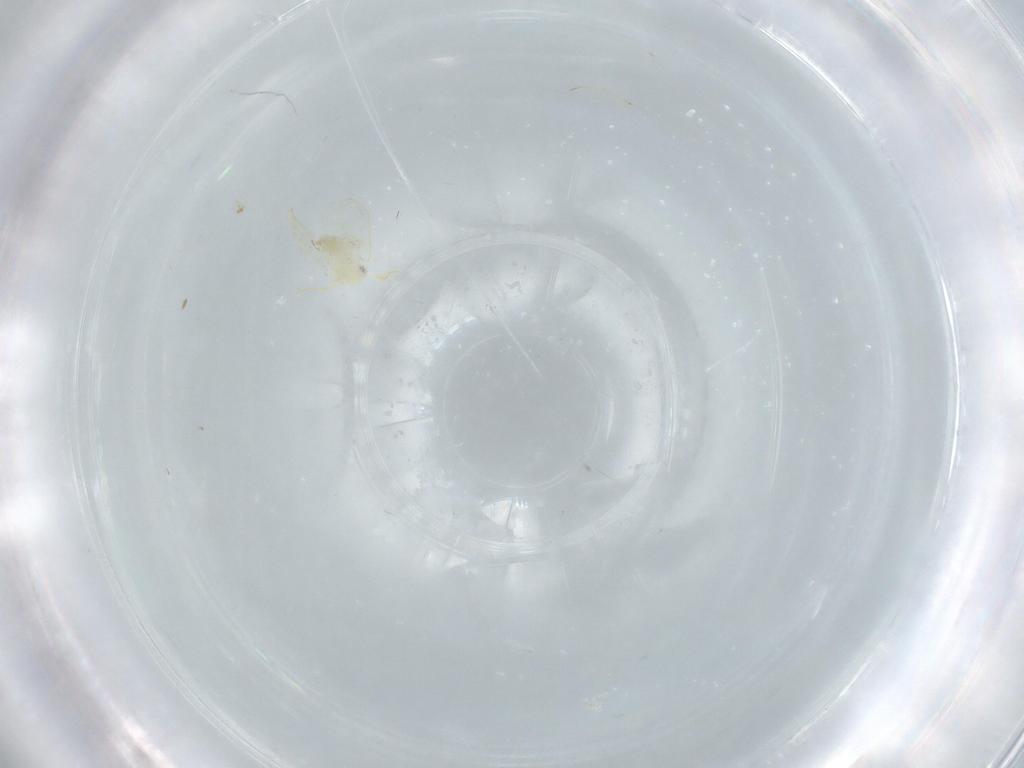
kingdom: Animalia
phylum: Arthropoda
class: Insecta
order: Hemiptera
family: Aleyrodidae
